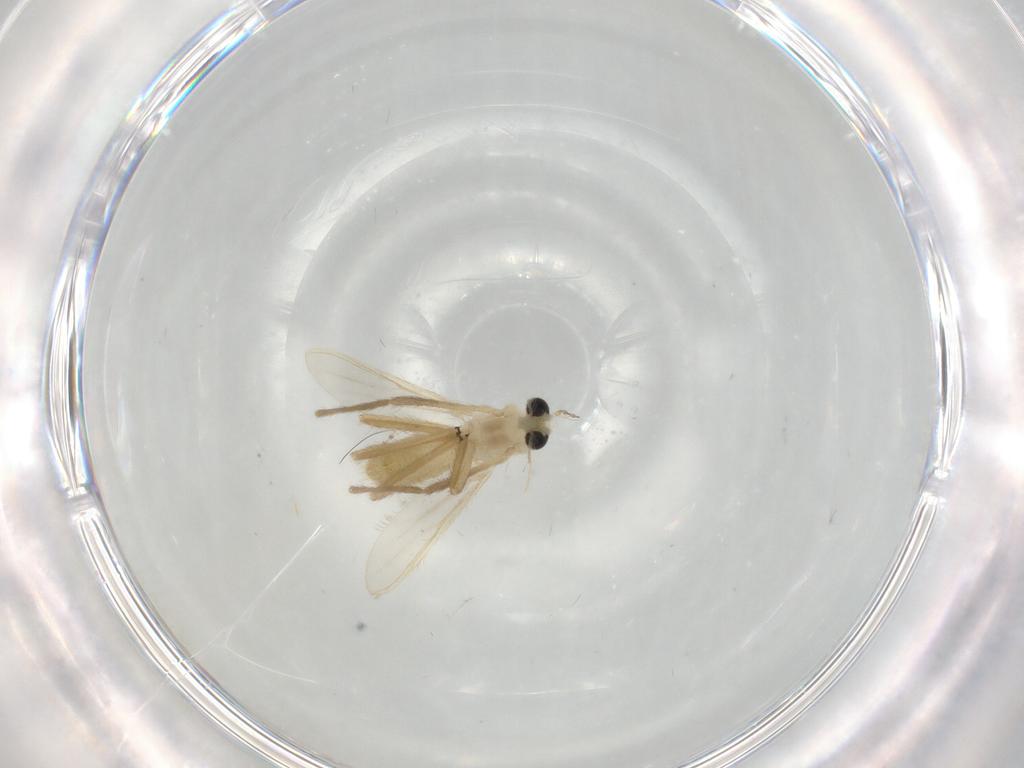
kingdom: Animalia
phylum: Arthropoda
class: Insecta
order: Diptera
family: Chironomidae
